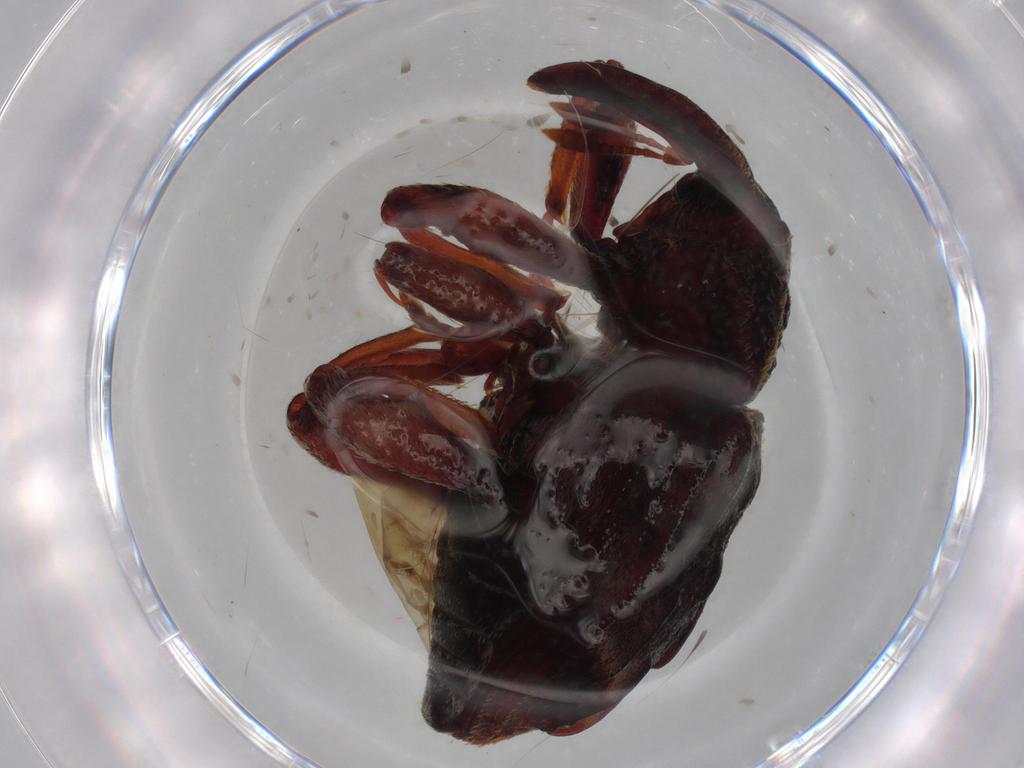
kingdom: Animalia
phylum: Arthropoda
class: Insecta
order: Coleoptera
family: Curculionidae
